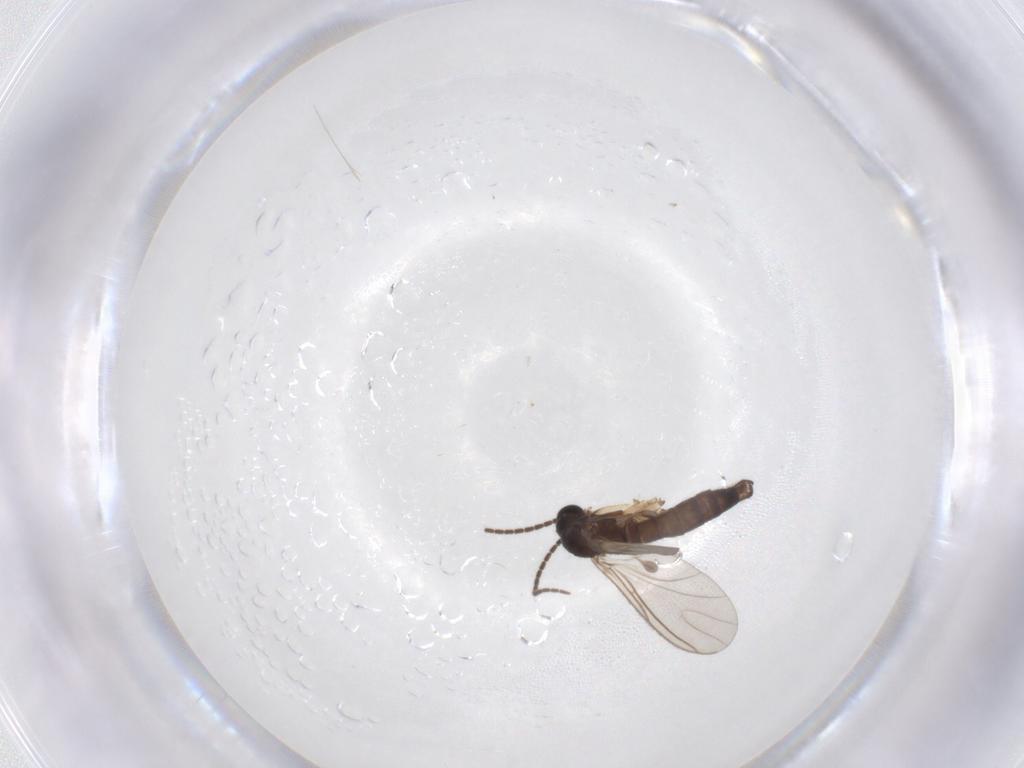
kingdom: Animalia
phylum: Arthropoda
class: Insecta
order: Diptera
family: Sciaridae
